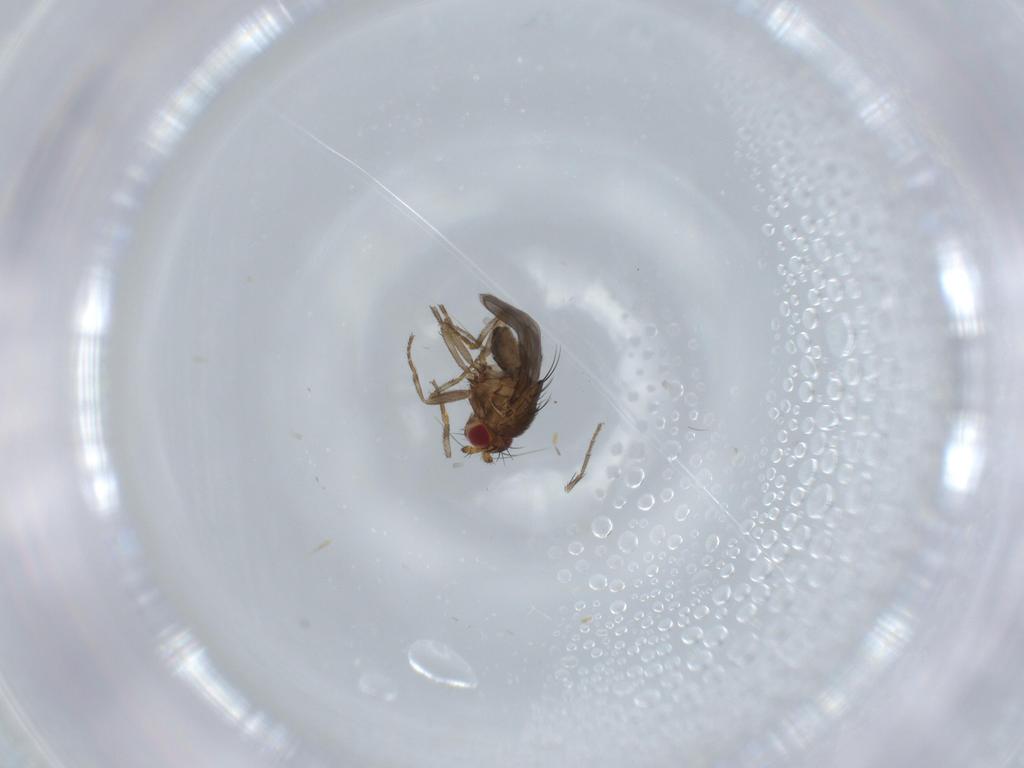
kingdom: Animalia
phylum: Arthropoda
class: Insecta
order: Diptera
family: Sphaeroceridae
